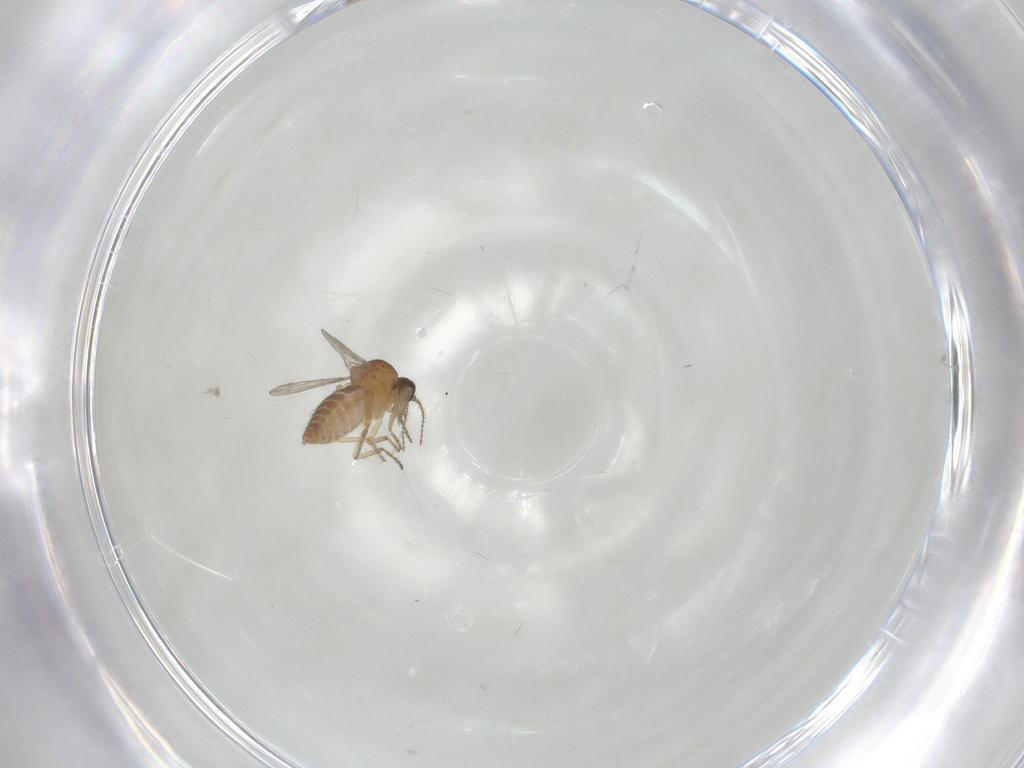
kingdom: Animalia
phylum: Arthropoda
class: Insecta
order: Diptera
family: Ceratopogonidae
